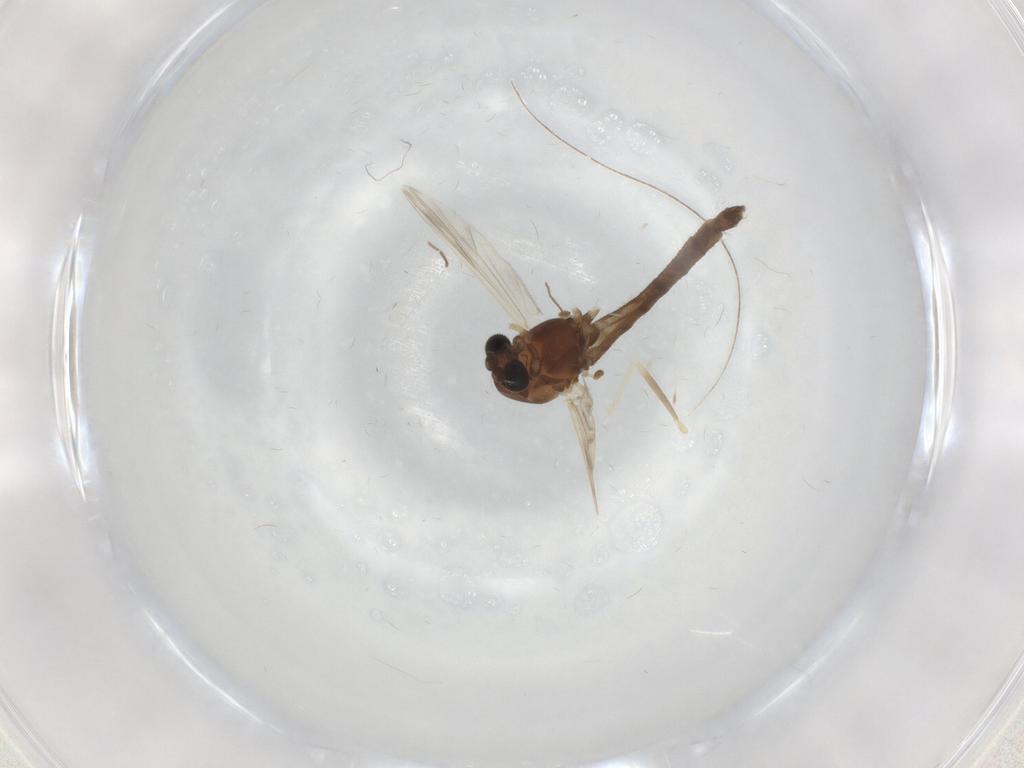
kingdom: Animalia
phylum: Arthropoda
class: Insecta
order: Diptera
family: Chironomidae
